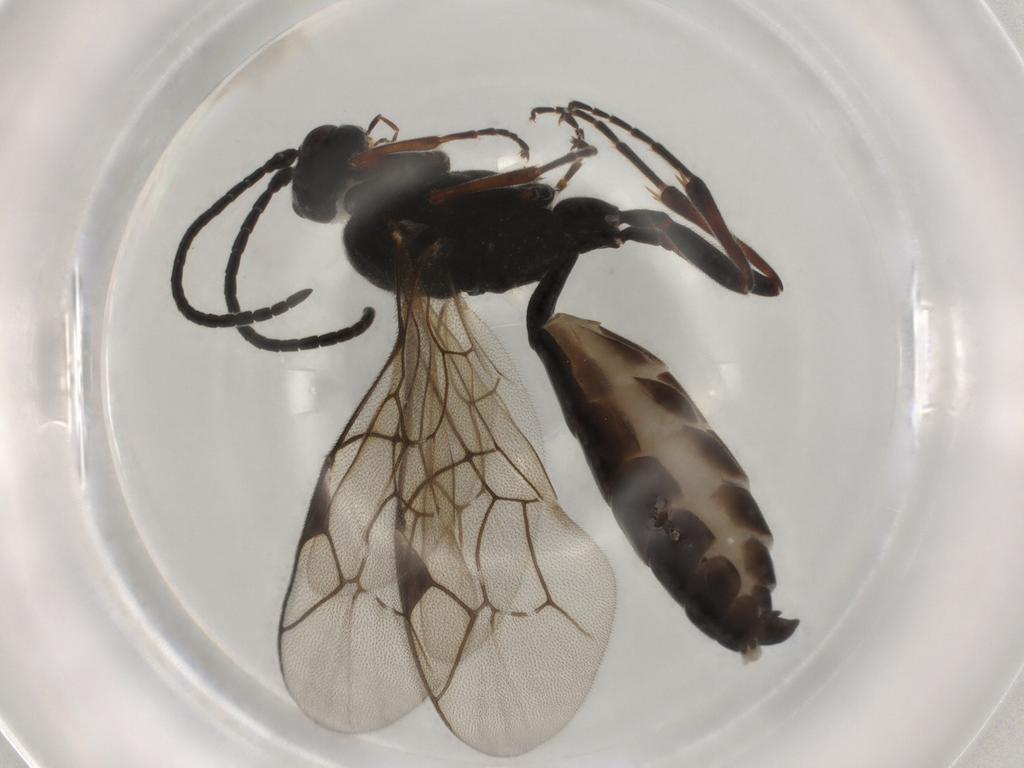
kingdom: Animalia
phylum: Arthropoda
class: Insecta
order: Hymenoptera
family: Ichneumonidae
